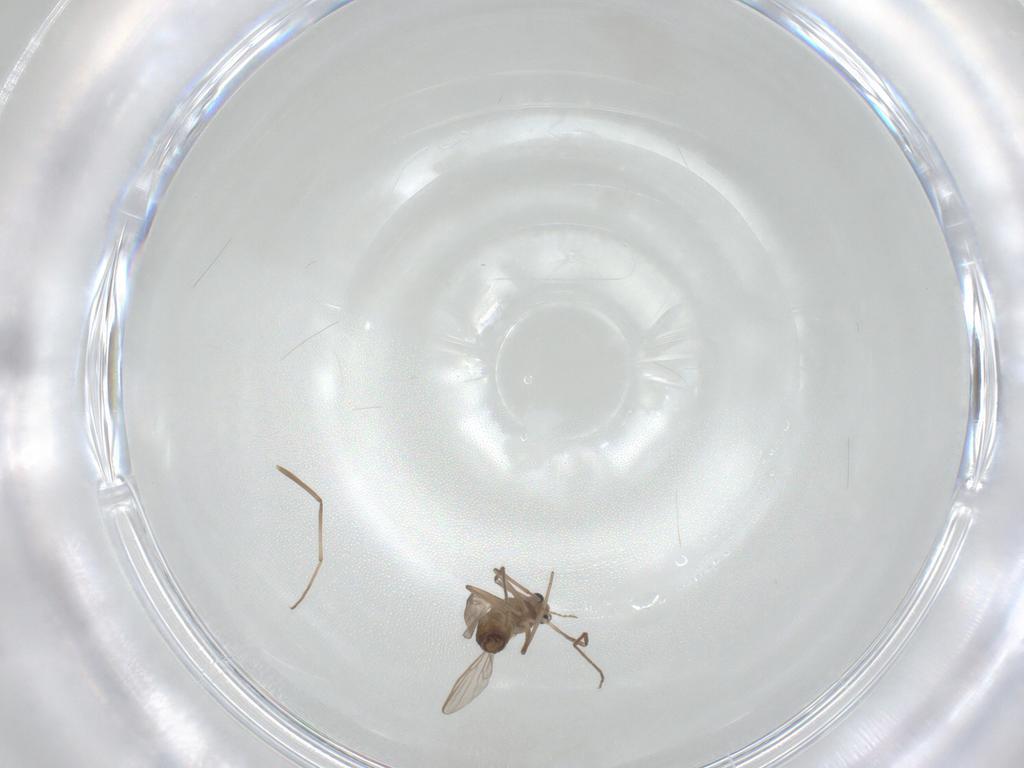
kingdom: Animalia
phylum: Arthropoda
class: Insecta
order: Diptera
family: Chironomidae
